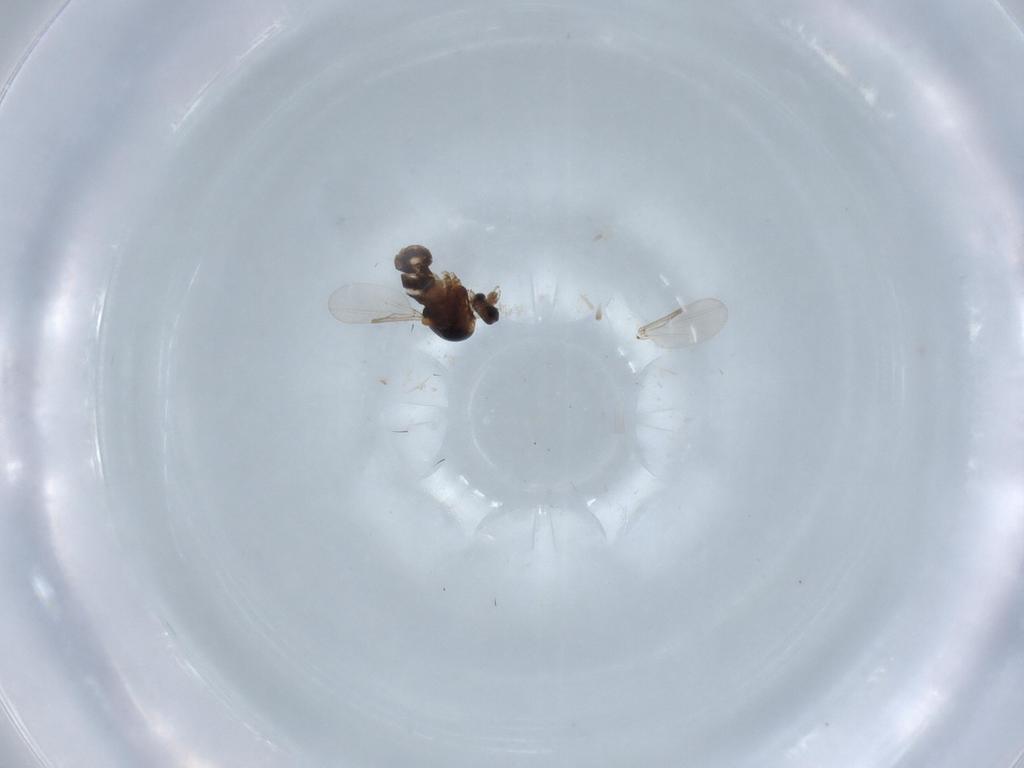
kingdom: Animalia
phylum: Arthropoda
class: Insecta
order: Diptera
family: Ceratopogonidae
